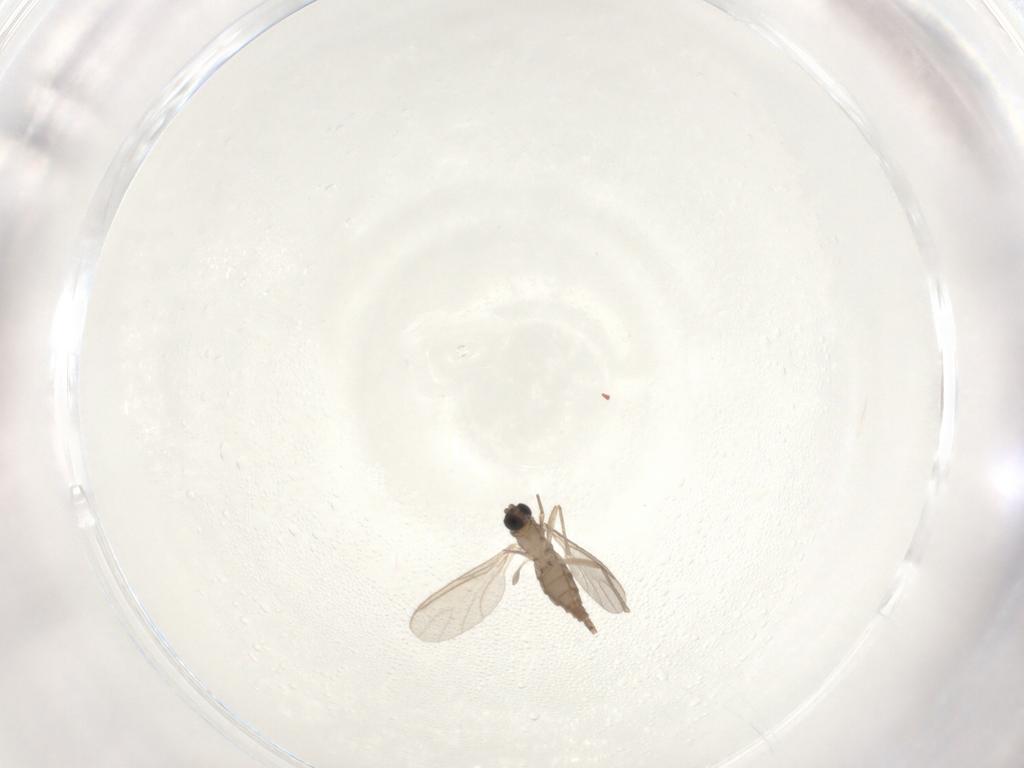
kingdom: Animalia
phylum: Arthropoda
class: Insecta
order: Diptera
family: Sciaridae
